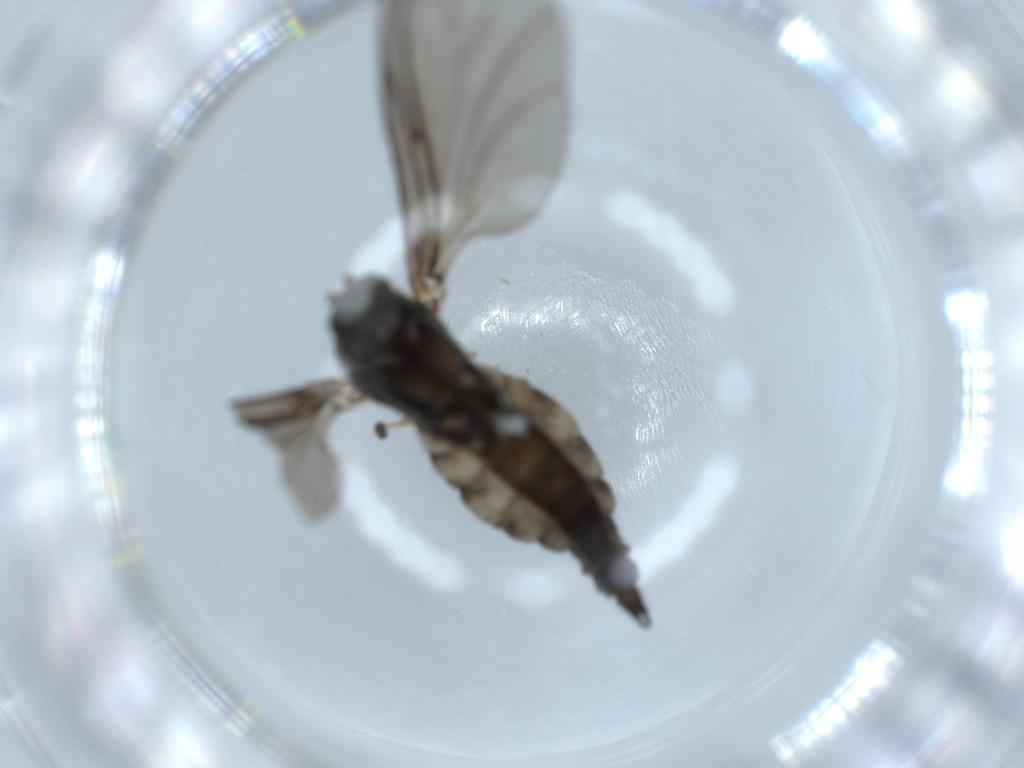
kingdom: Animalia
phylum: Arthropoda
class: Insecta
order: Diptera
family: Sciaridae
